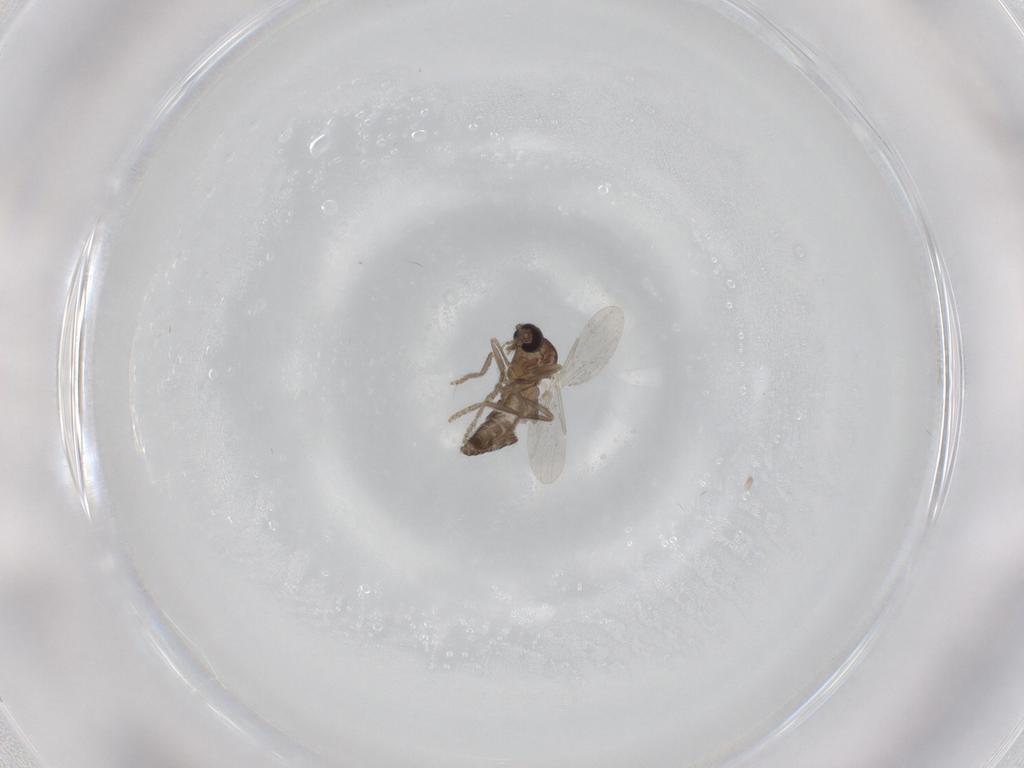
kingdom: Animalia
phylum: Arthropoda
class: Insecta
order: Diptera
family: Ceratopogonidae
